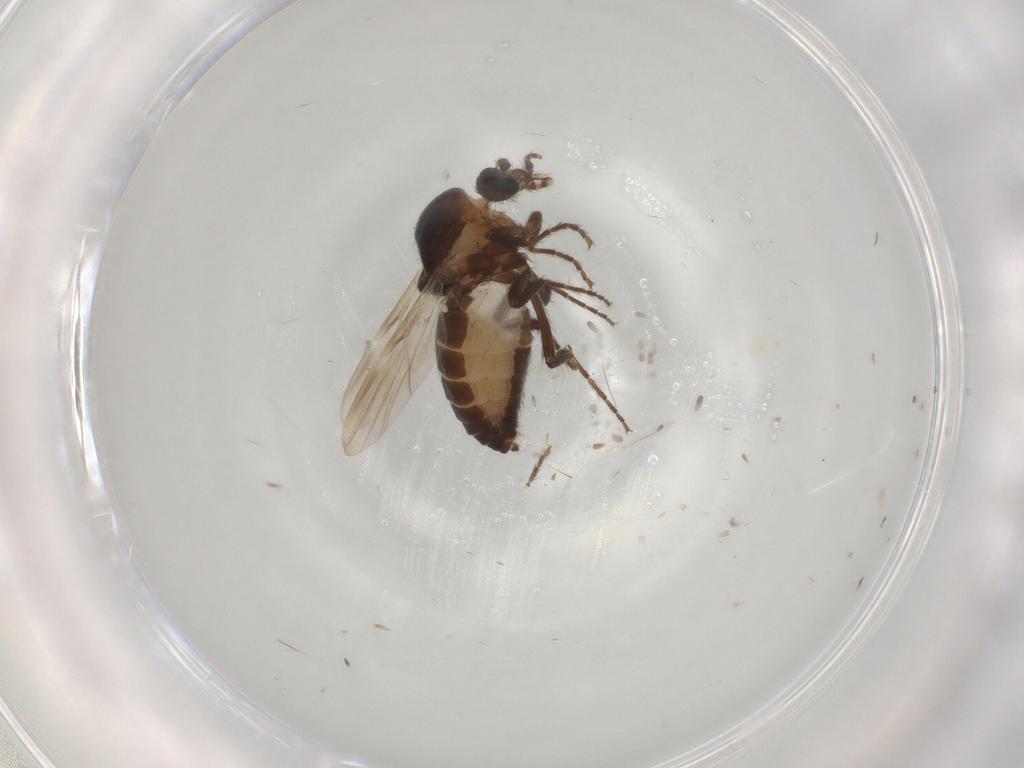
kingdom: Animalia
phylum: Arthropoda
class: Insecta
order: Diptera
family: Ceratopogonidae
